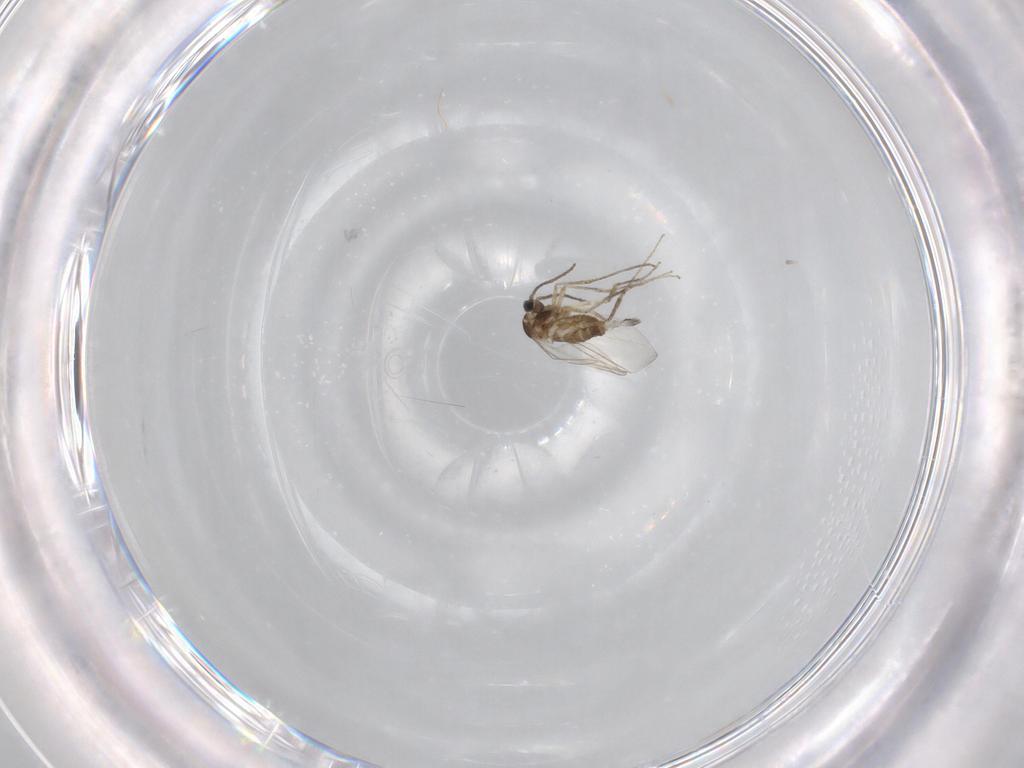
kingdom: Animalia
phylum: Arthropoda
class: Insecta
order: Diptera
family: Cecidomyiidae
